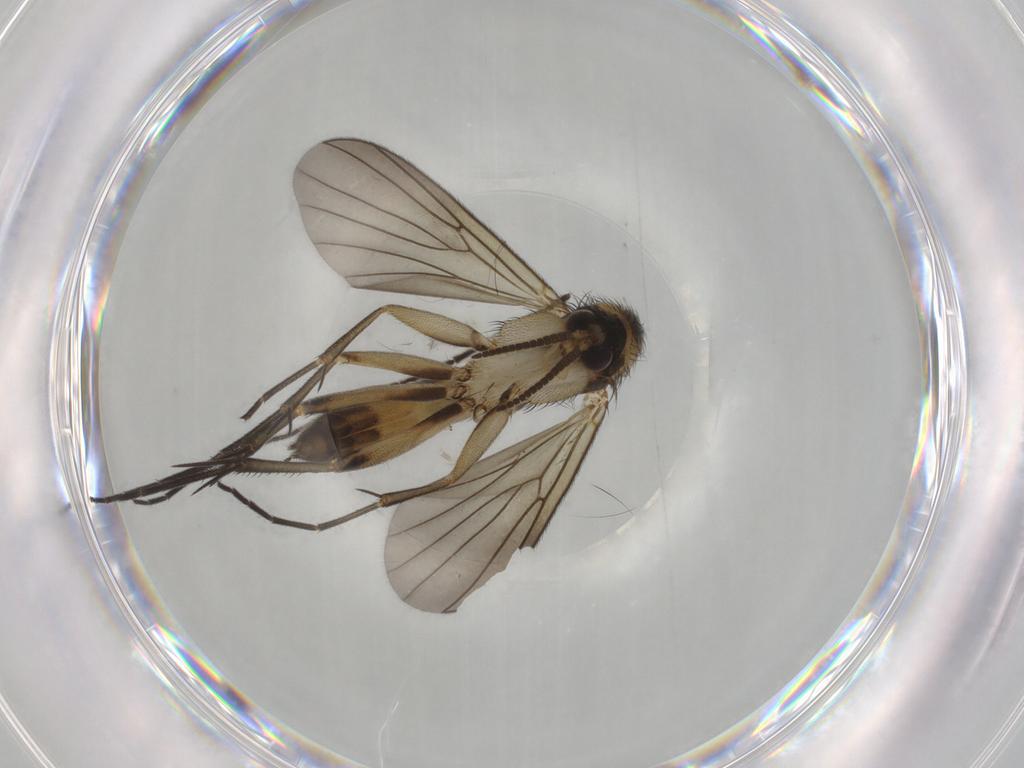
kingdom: Animalia
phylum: Arthropoda
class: Insecta
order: Diptera
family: Mycetophilidae
